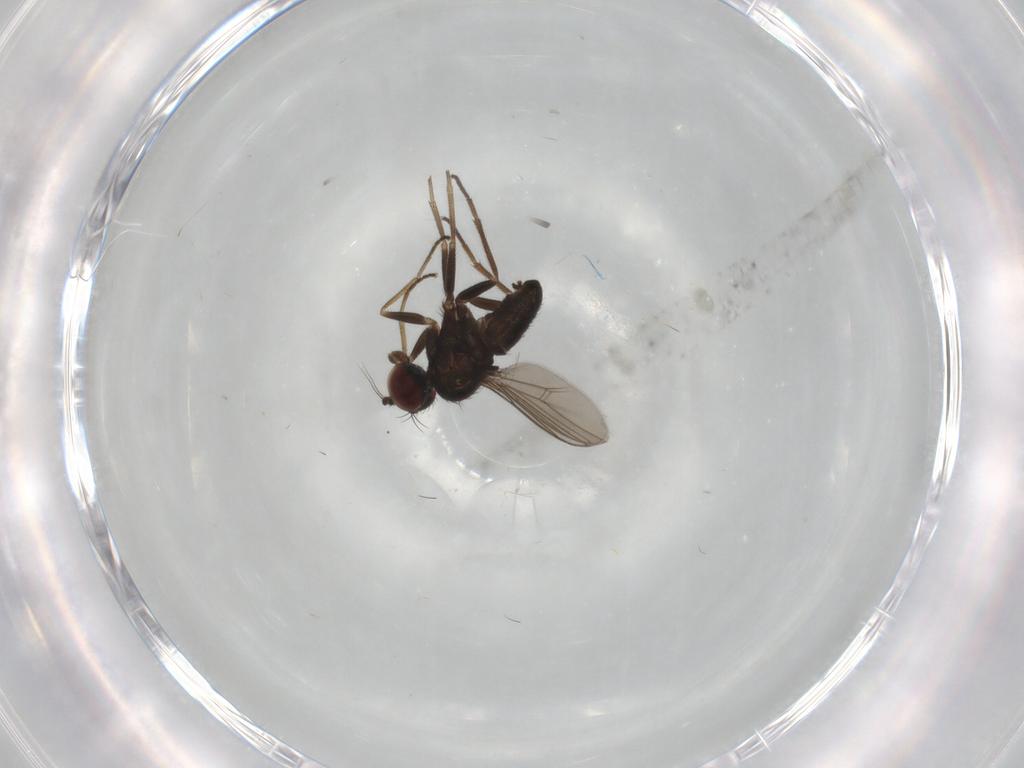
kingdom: Animalia
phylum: Arthropoda
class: Insecta
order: Diptera
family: Dolichopodidae
